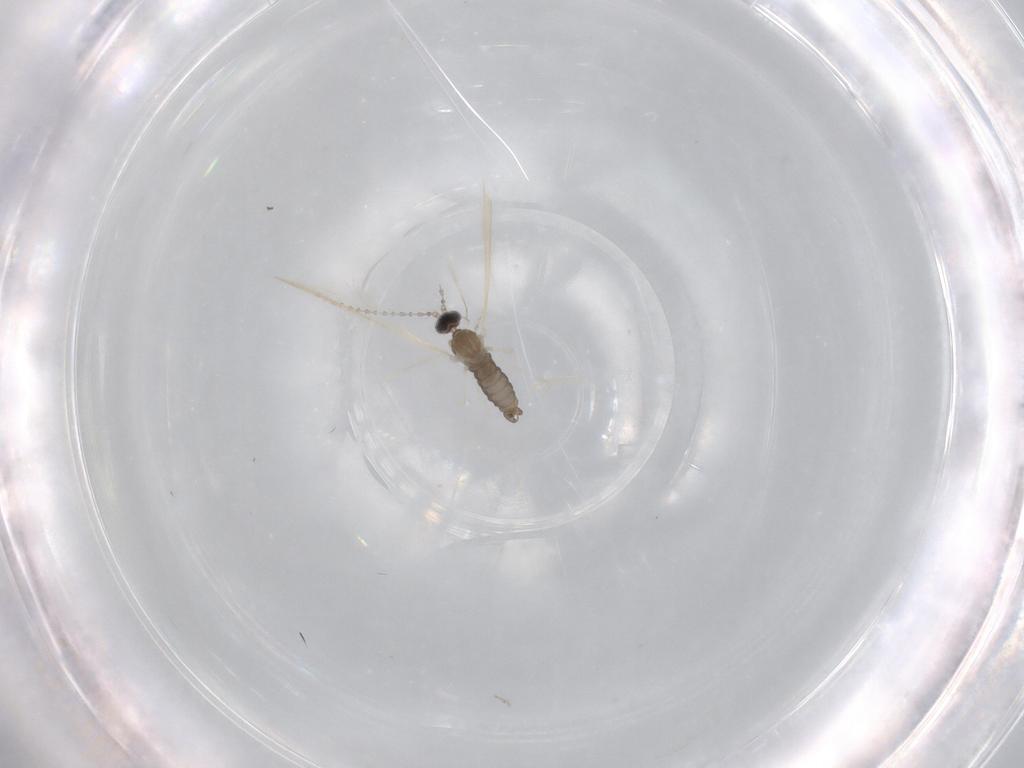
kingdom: Animalia
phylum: Arthropoda
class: Insecta
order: Diptera
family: Cecidomyiidae
